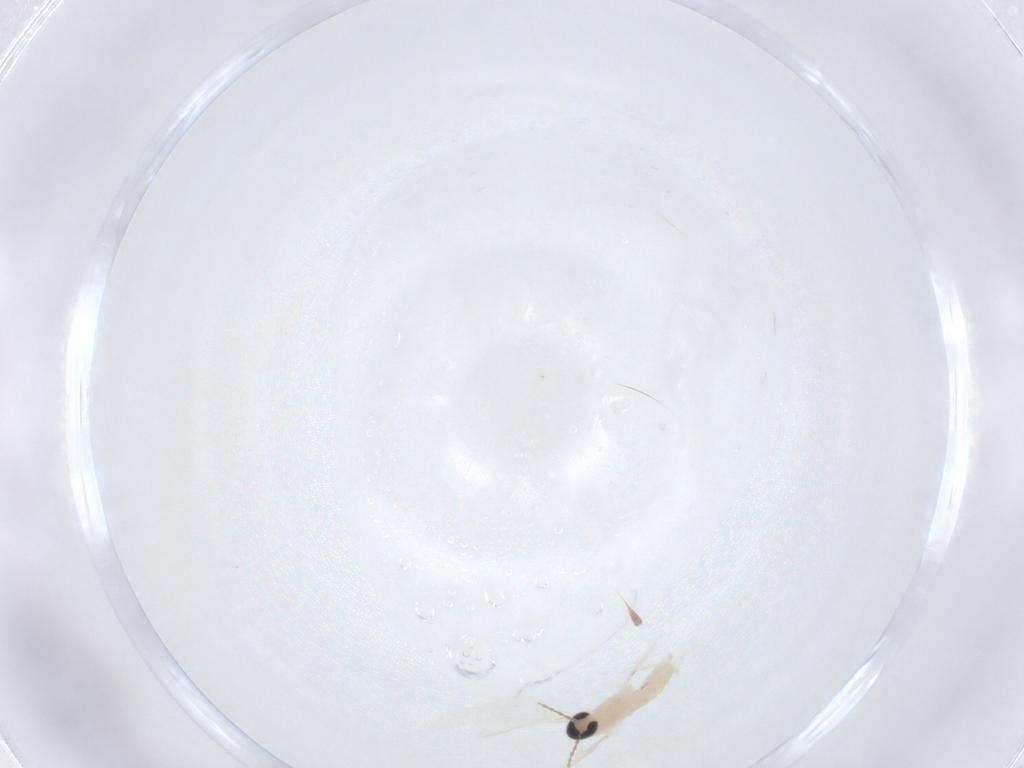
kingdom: Animalia
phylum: Arthropoda
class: Insecta
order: Diptera
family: Cecidomyiidae
